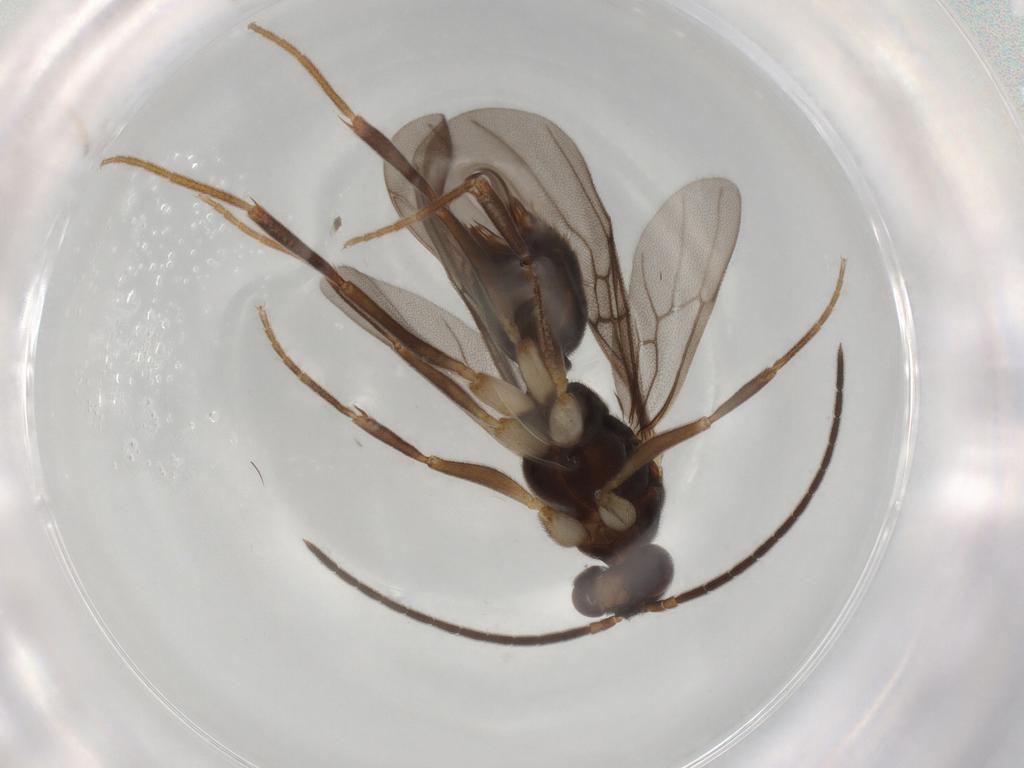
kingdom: Animalia
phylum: Arthropoda
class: Insecta
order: Hymenoptera
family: Formicidae
